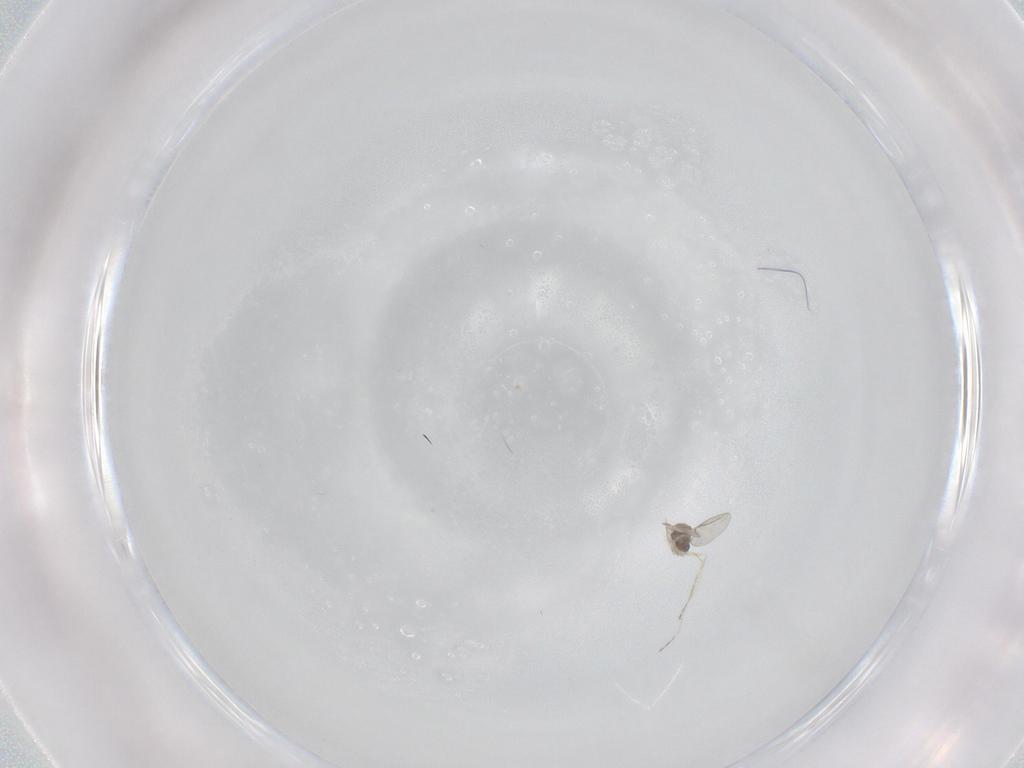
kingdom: Animalia
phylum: Arthropoda
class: Insecta
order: Diptera
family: Cecidomyiidae
